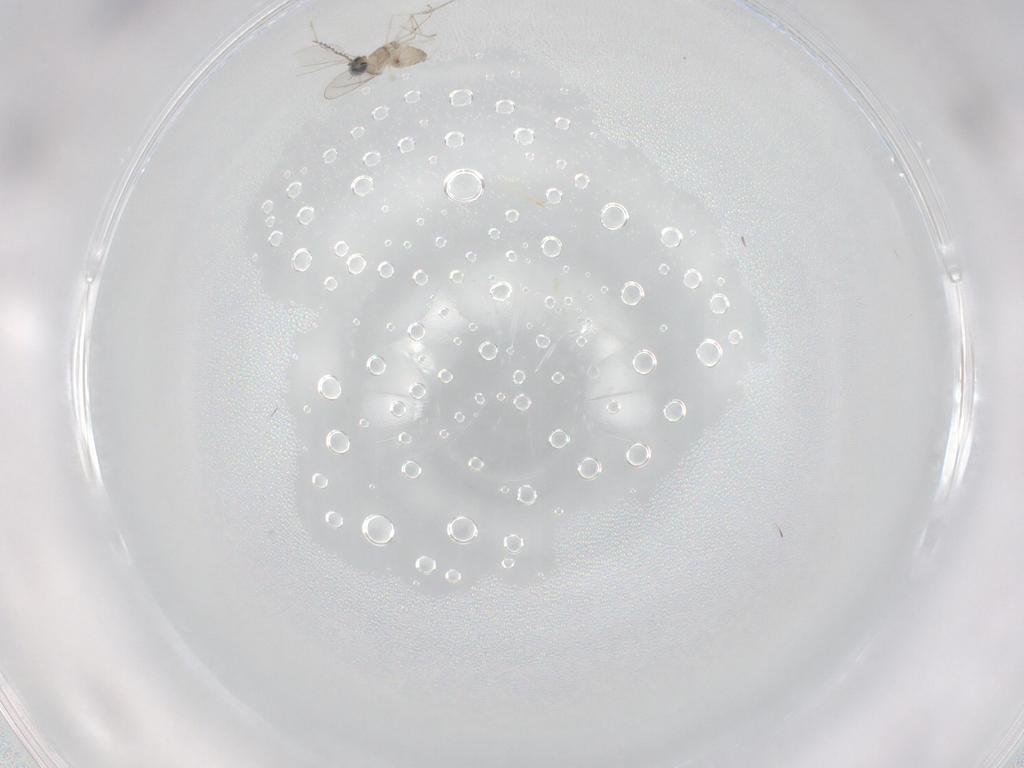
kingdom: Animalia
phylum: Arthropoda
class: Insecta
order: Diptera
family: Cecidomyiidae
